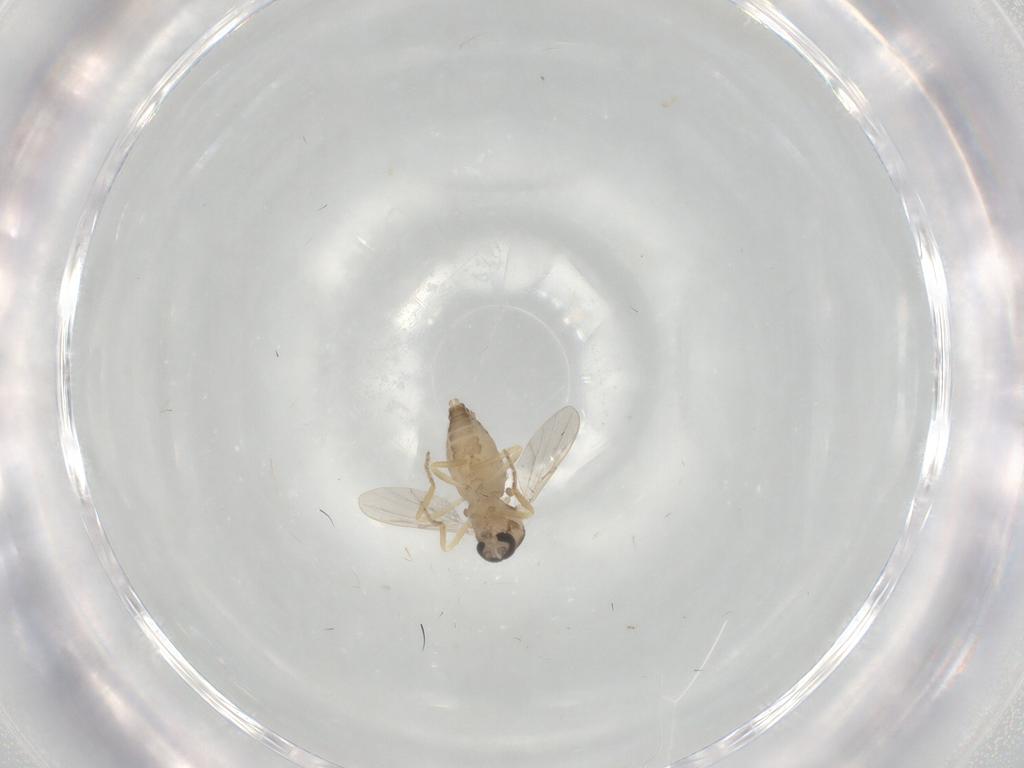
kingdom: Animalia
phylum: Arthropoda
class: Insecta
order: Diptera
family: Ceratopogonidae
